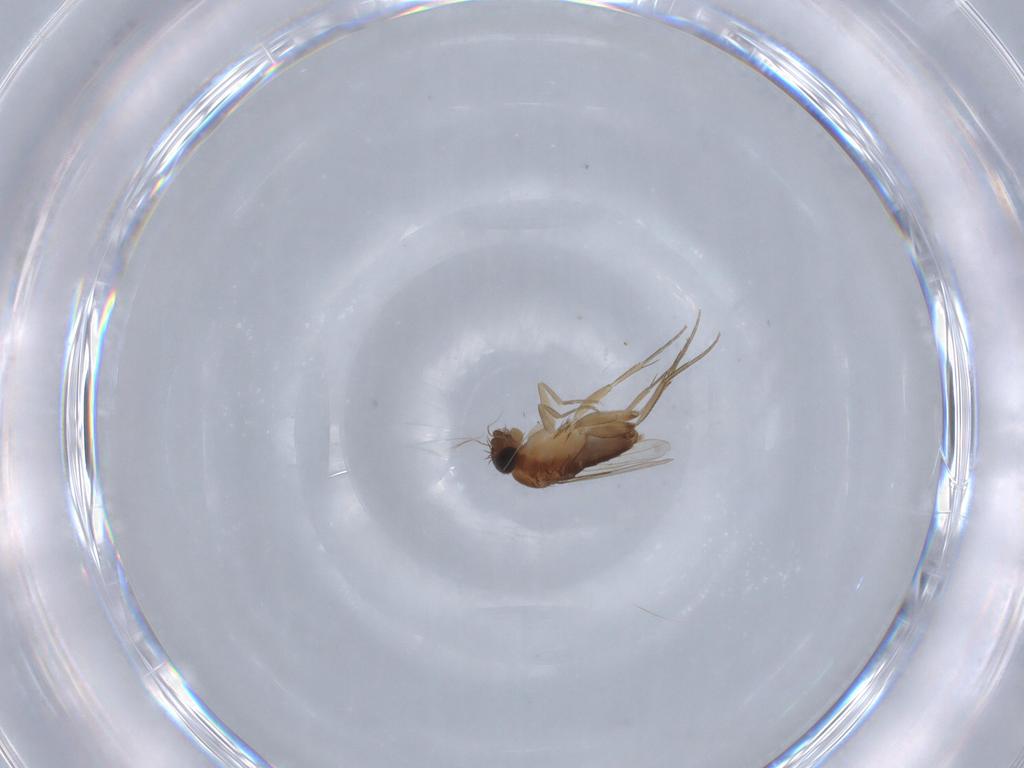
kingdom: Animalia
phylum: Arthropoda
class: Insecta
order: Diptera
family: Phoridae
